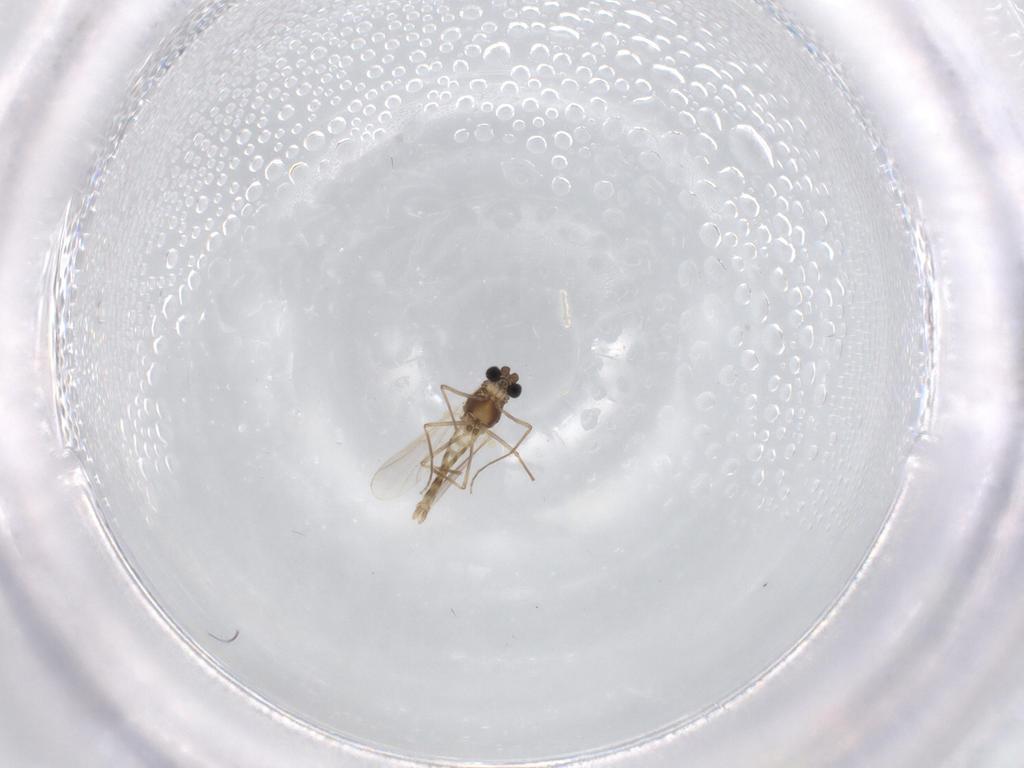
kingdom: Animalia
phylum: Arthropoda
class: Insecta
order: Diptera
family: Chironomidae
